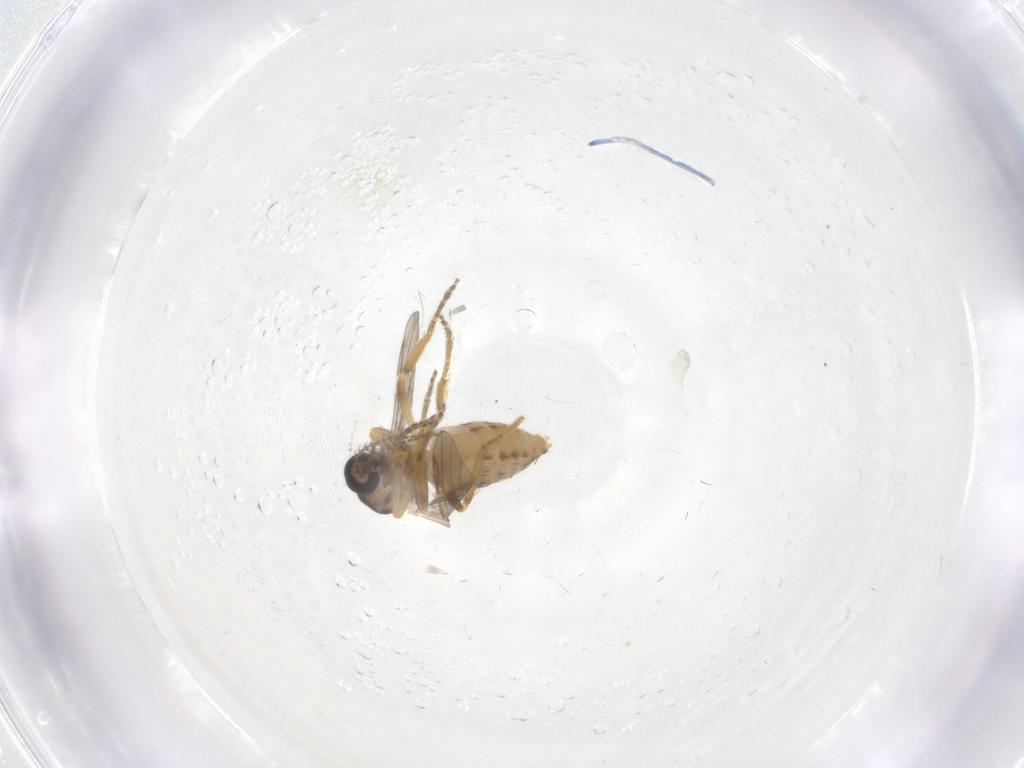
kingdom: Animalia
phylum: Arthropoda
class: Insecta
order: Diptera
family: Ceratopogonidae
